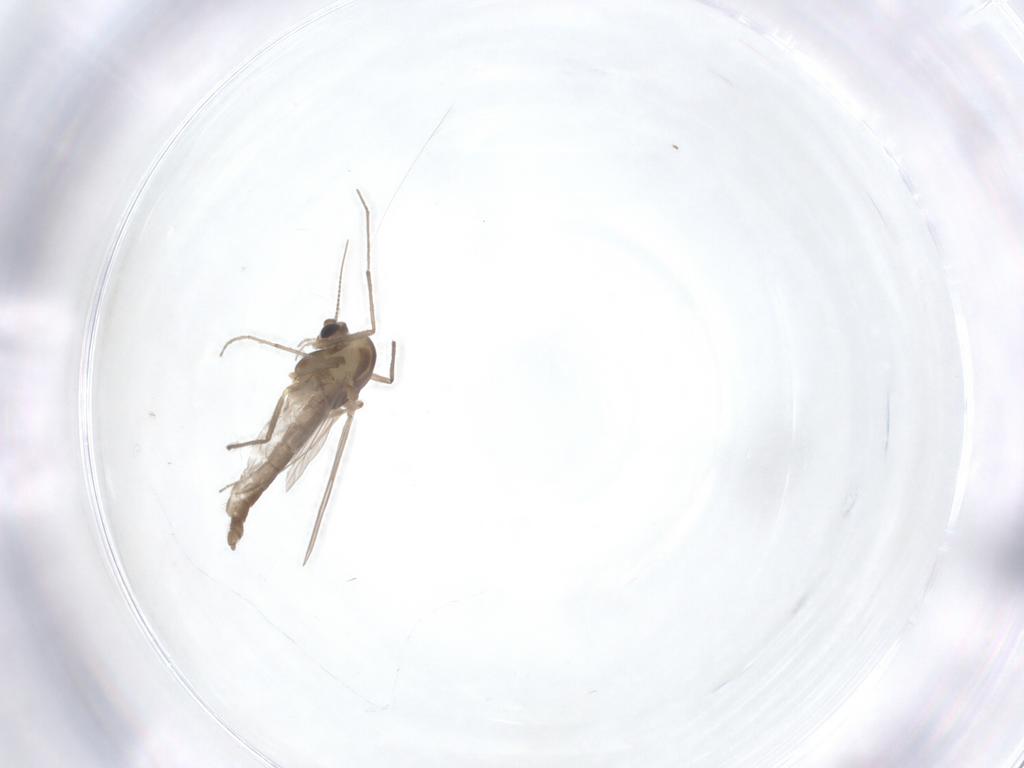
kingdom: Animalia
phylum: Arthropoda
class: Insecta
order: Diptera
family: Chironomidae
